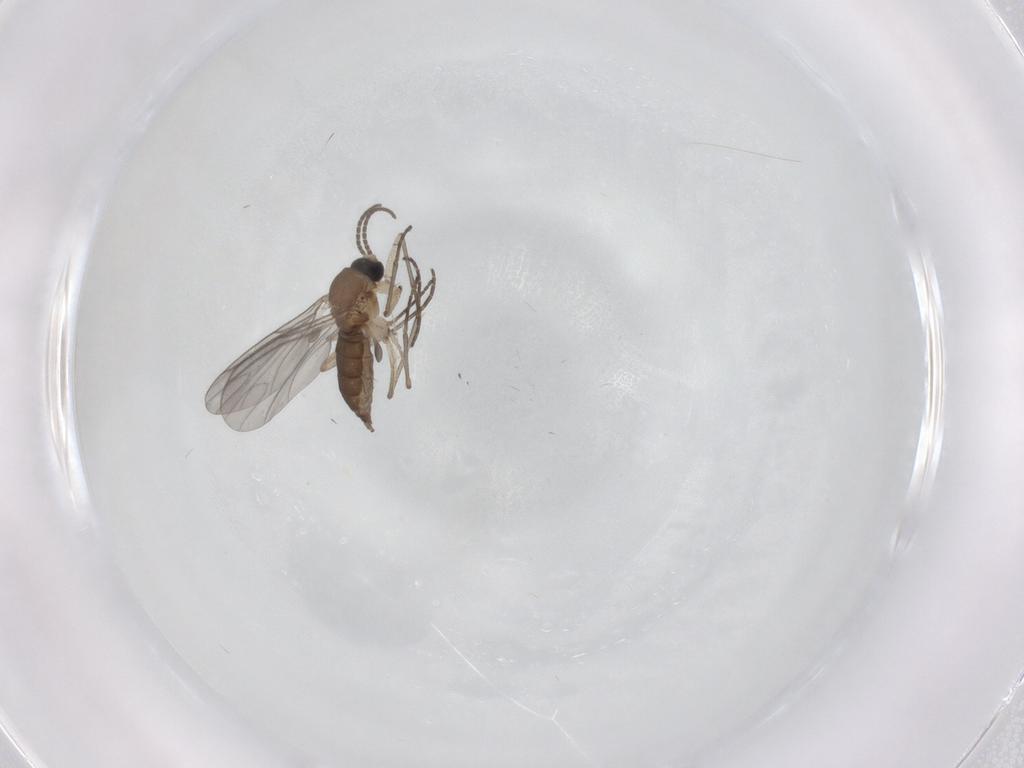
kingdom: Animalia
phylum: Arthropoda
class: Insecta
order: Diptera
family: Sciaridae
